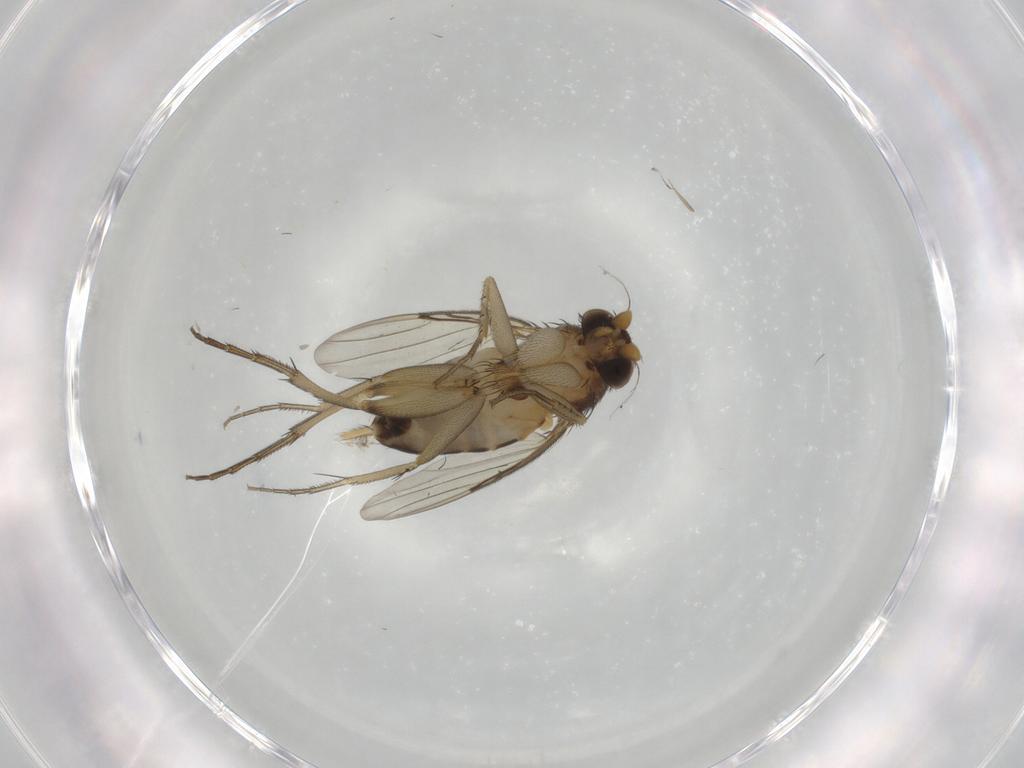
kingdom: Animalia
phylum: Arthropoda
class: Insecta
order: Diptera
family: Phoridae
